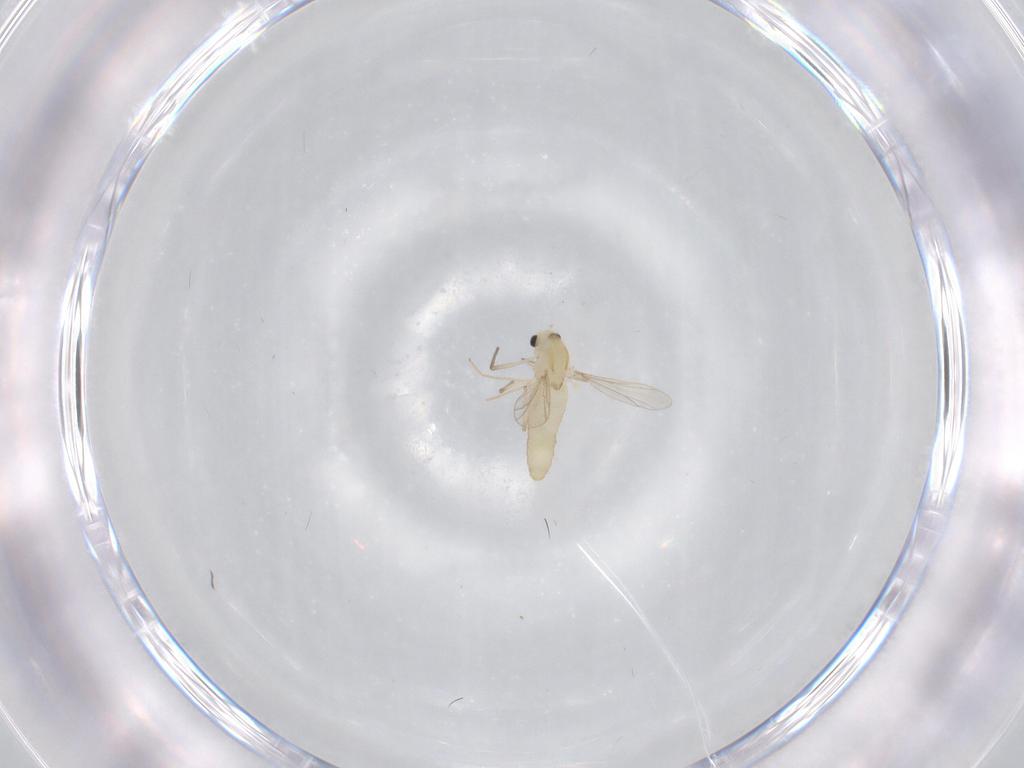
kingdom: Animalia
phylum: Arthropoda
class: Insecta
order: Diptera
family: Chironomidae
